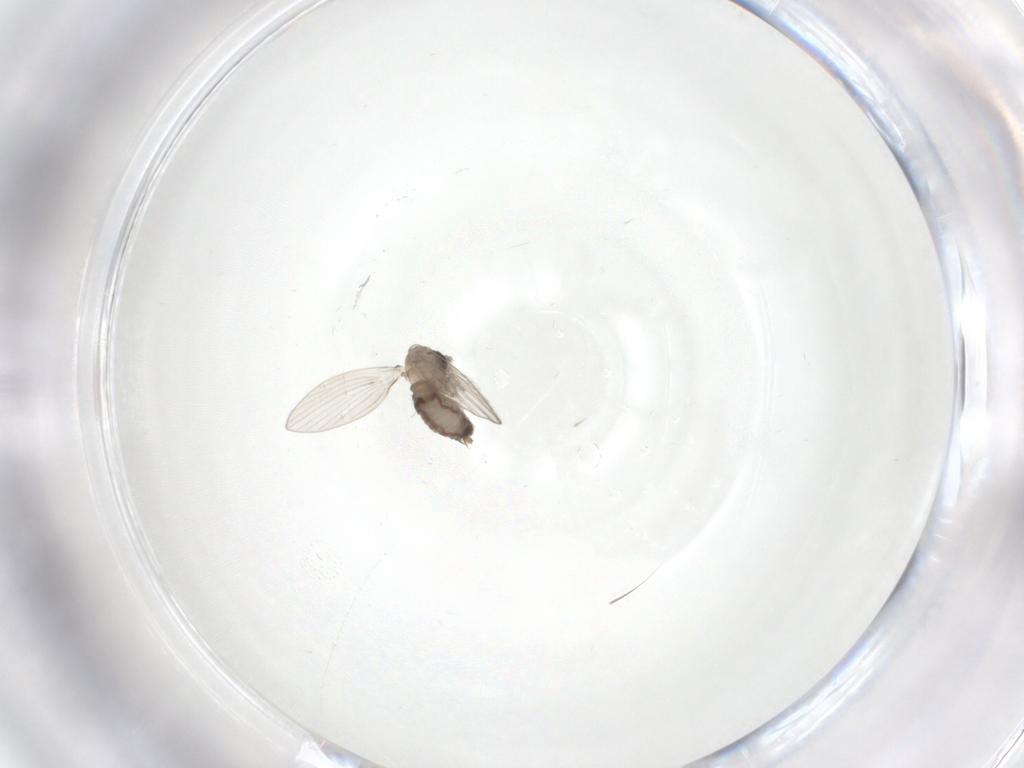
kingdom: Animalia
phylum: Arthropoda
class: Insecta
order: Diptera
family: Psychodidae
